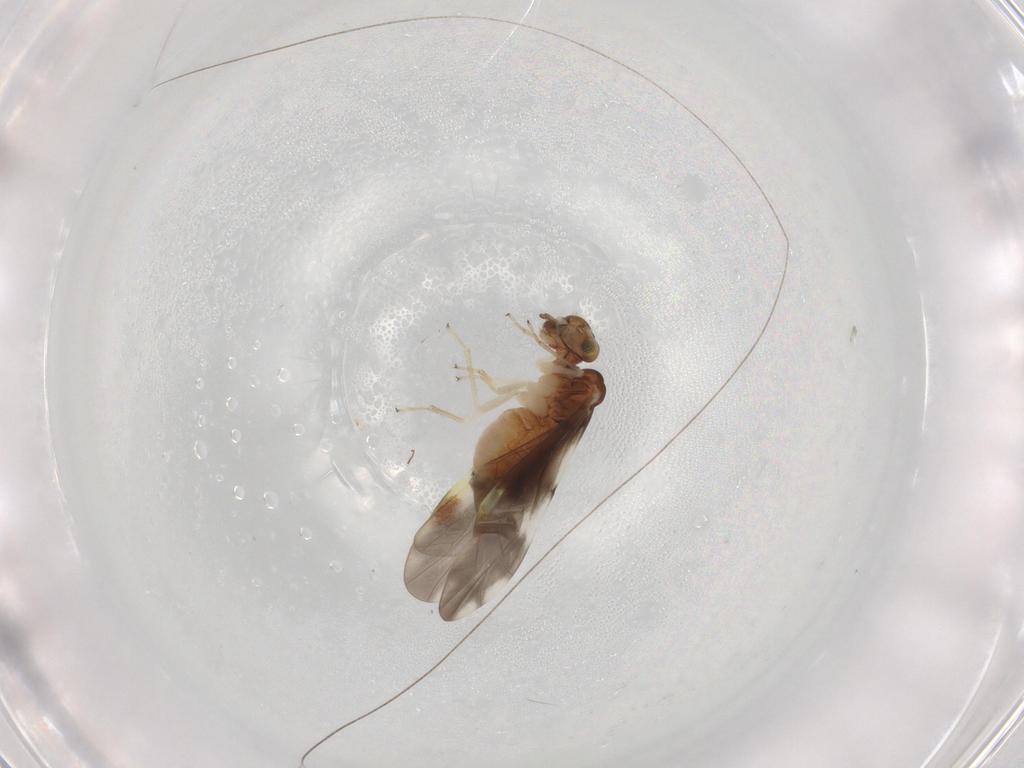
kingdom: Animalia
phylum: Arthropoda
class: Insecta
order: Psocodea
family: Peripsocidae
